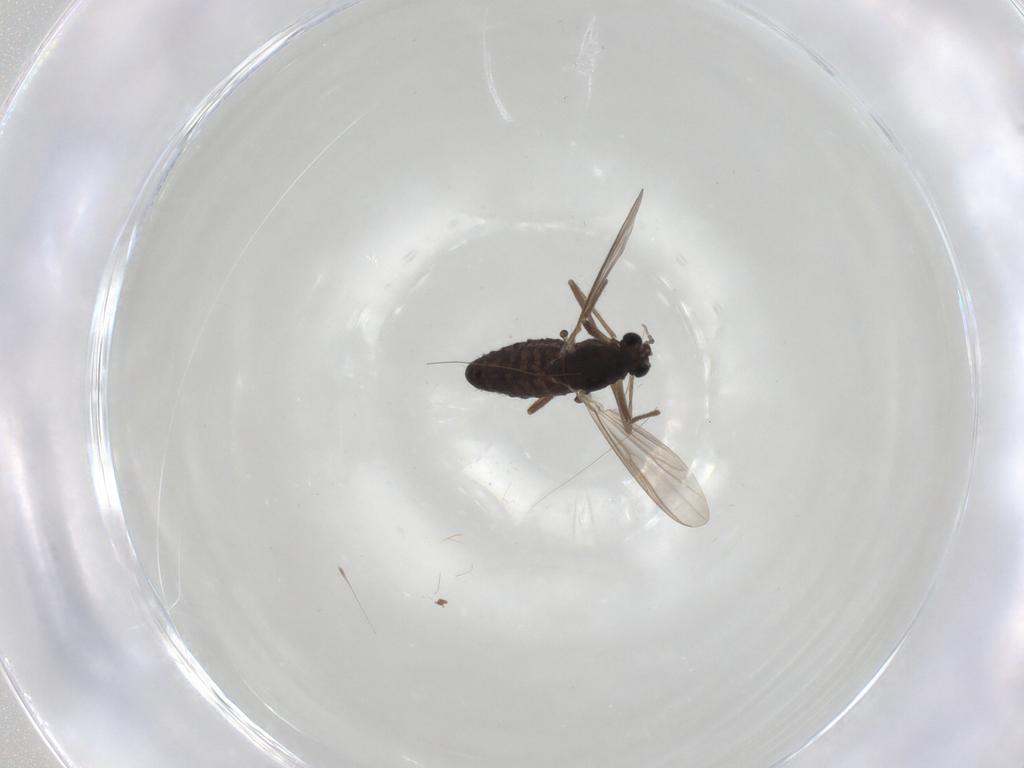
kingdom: Animalia
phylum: Arthropoda
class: Insecta
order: Diptera
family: Chironomidae
